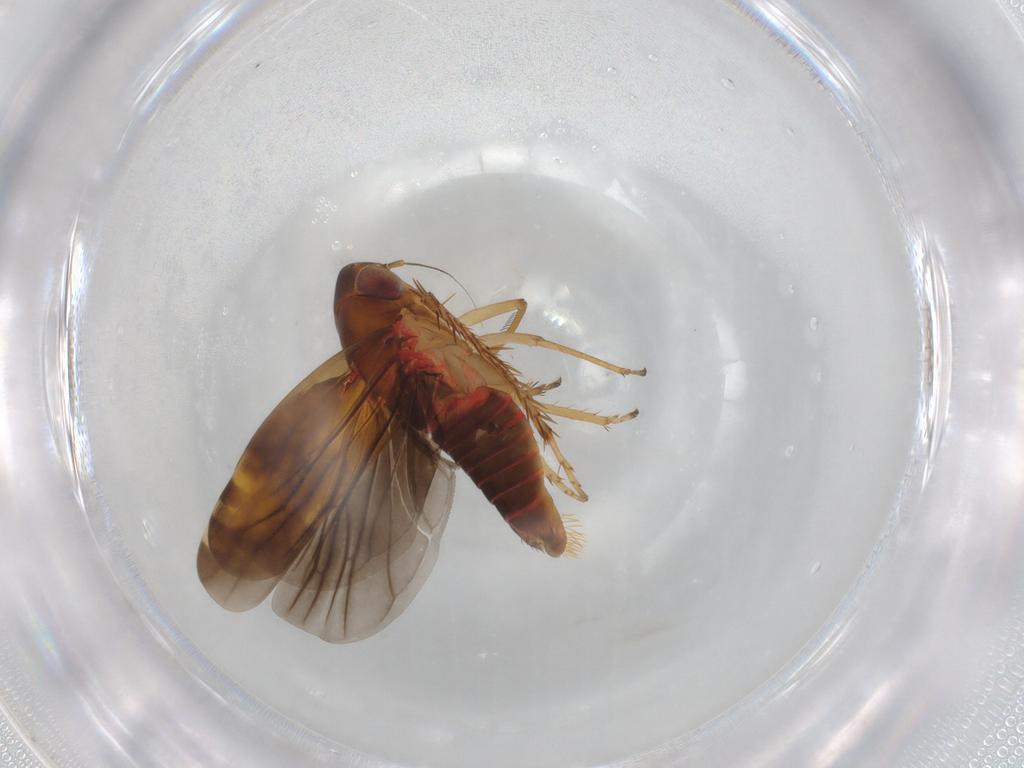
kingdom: Animalia
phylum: Arthropoda
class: Insecta
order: Hemiptera
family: Cicadellidae
